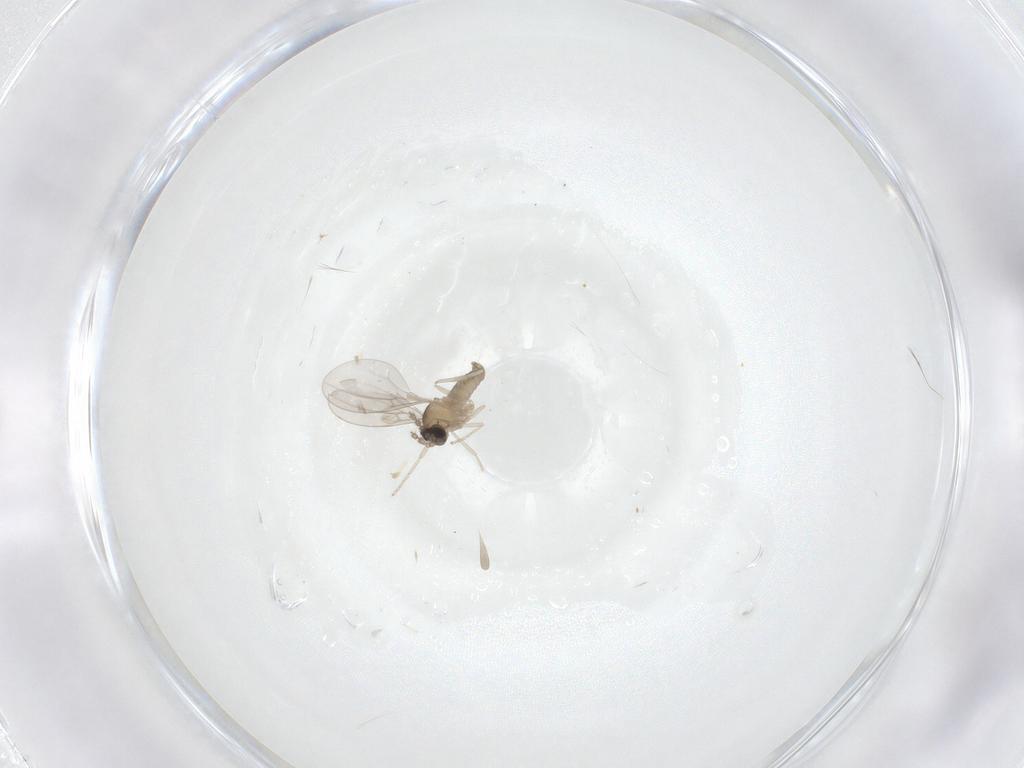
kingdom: Animalia
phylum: Arthropoda
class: Insecta
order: Diptera
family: Cecidomyiidae
